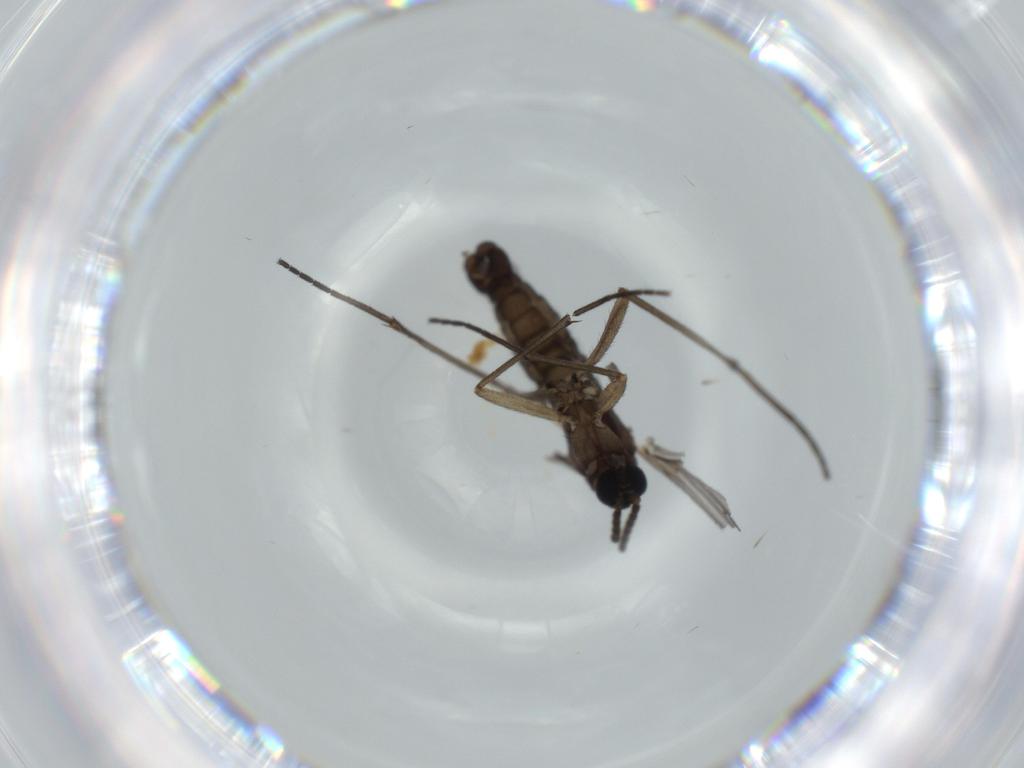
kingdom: Animalia
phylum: Arthropoda
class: Insecta
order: Diptera
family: Sciaridae
